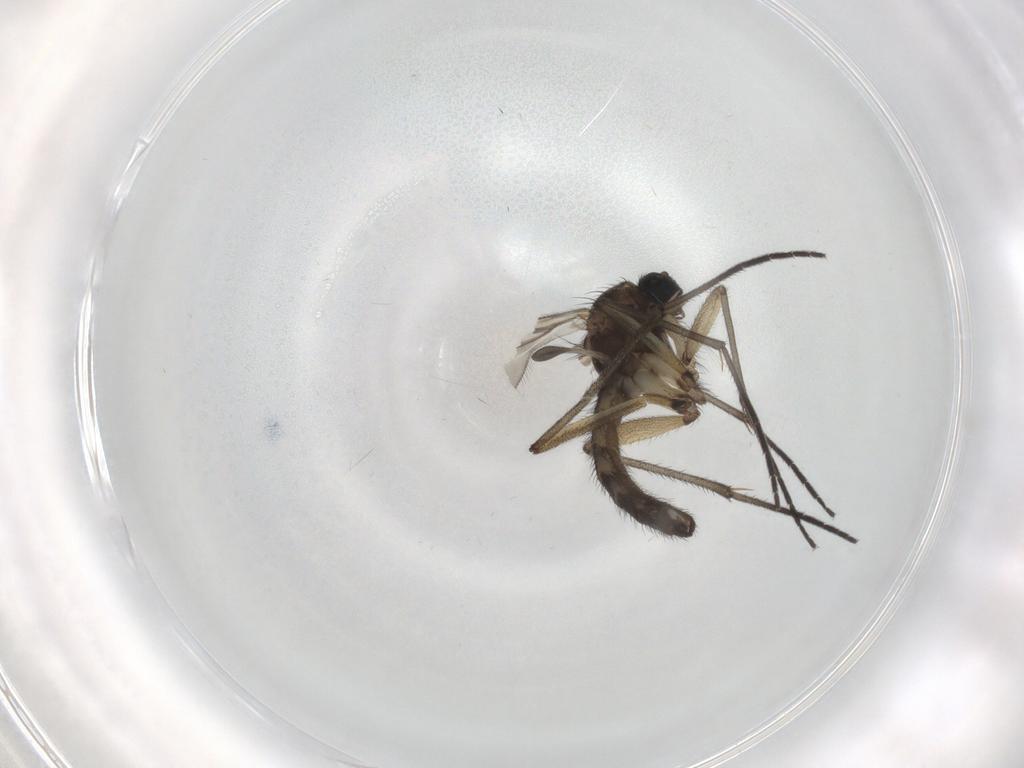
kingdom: Animalia
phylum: Arthropoda
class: Insecta
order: Diptera
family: Sciaridae
